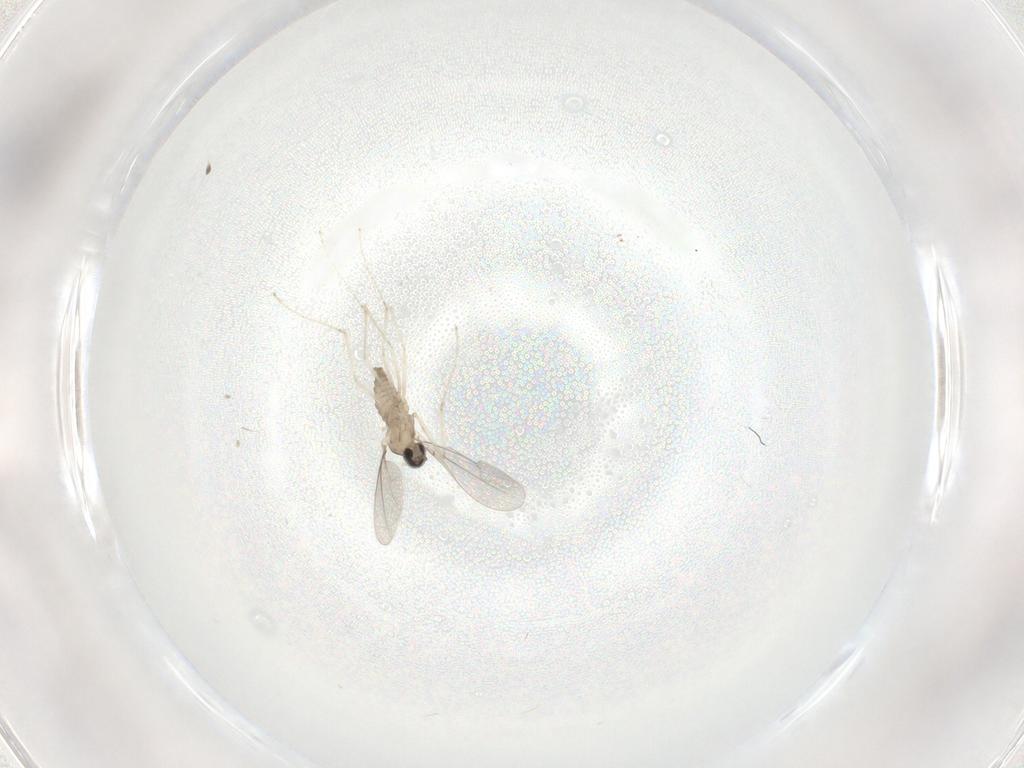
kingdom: Animalia
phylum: Arthropoda
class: Insecta
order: Diptera
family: Cecidomyiidae
